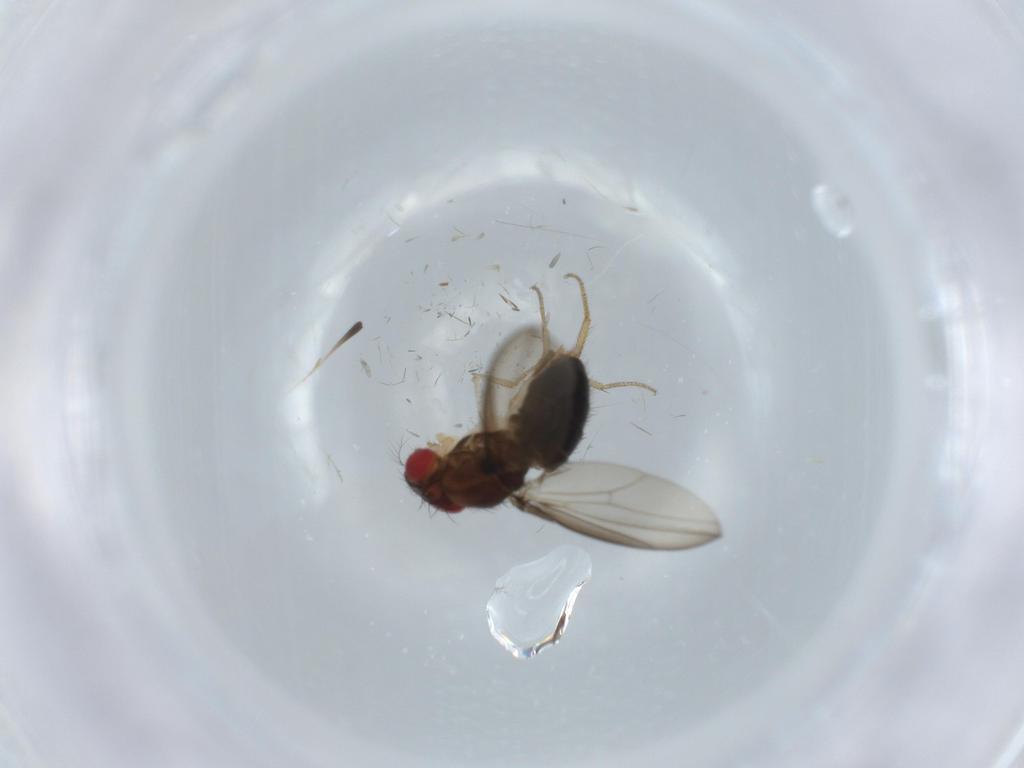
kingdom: Animalia
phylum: Arthropoda
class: Insecta
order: Diptera
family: Drosophilidae
